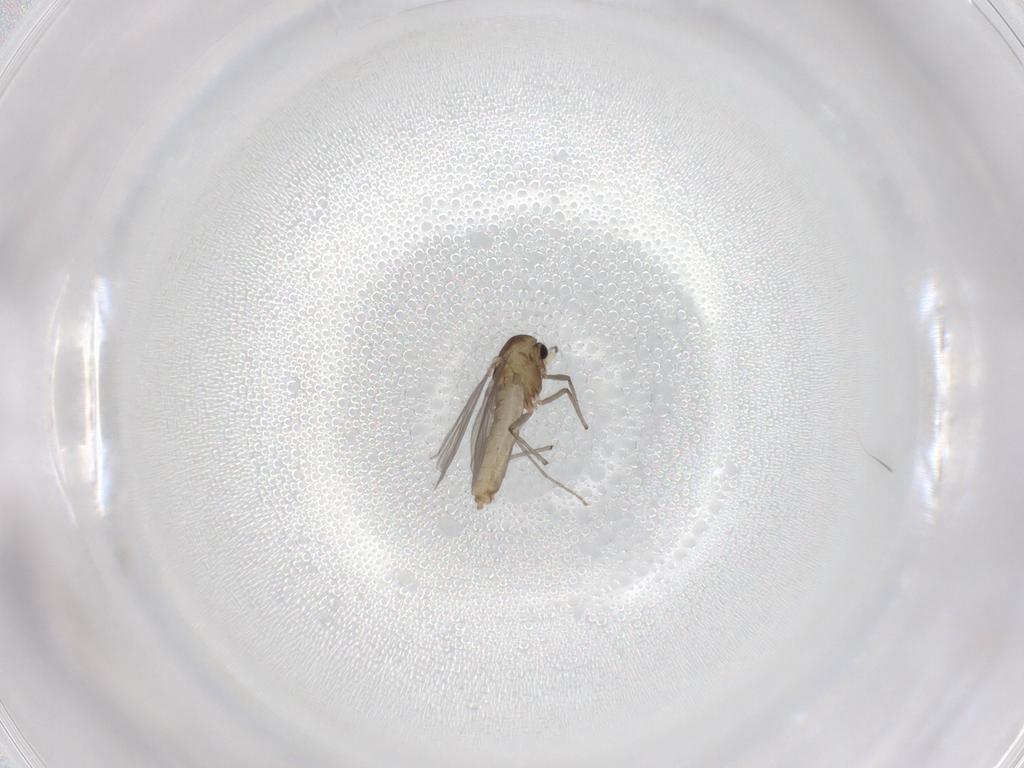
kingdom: Animalia
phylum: Arthropoda
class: Insecta
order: Diptera
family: Chironomidae
